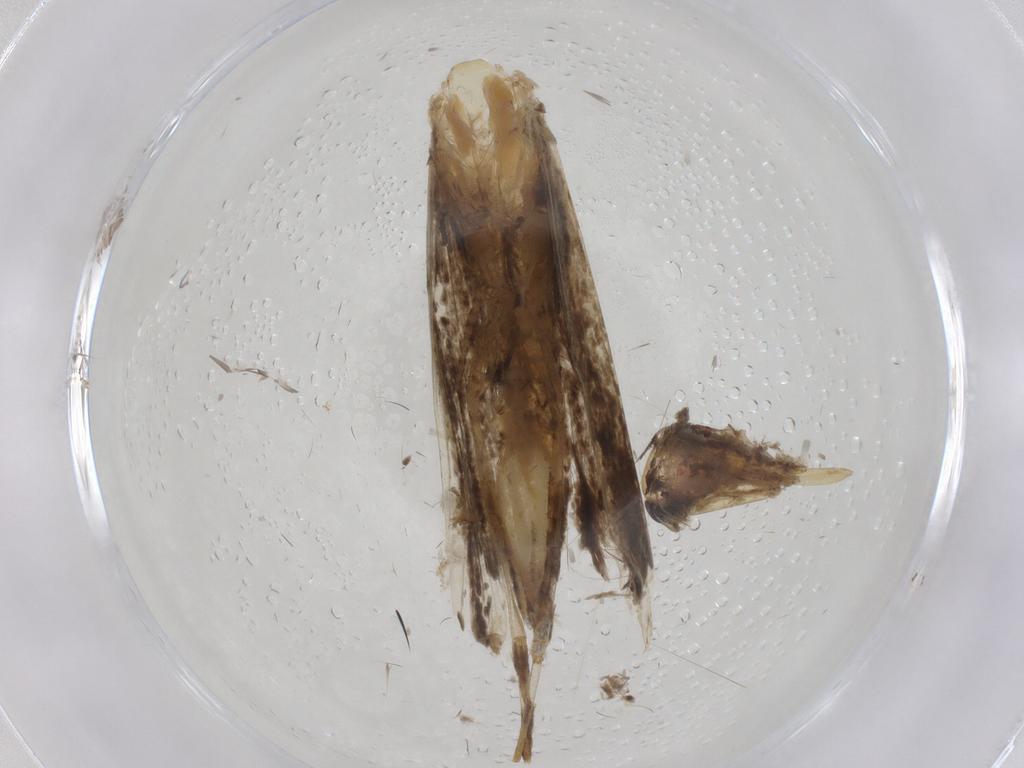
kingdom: Animalia
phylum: Arthropoda
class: Insecta
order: Lepidoptera
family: Nepticulidae
